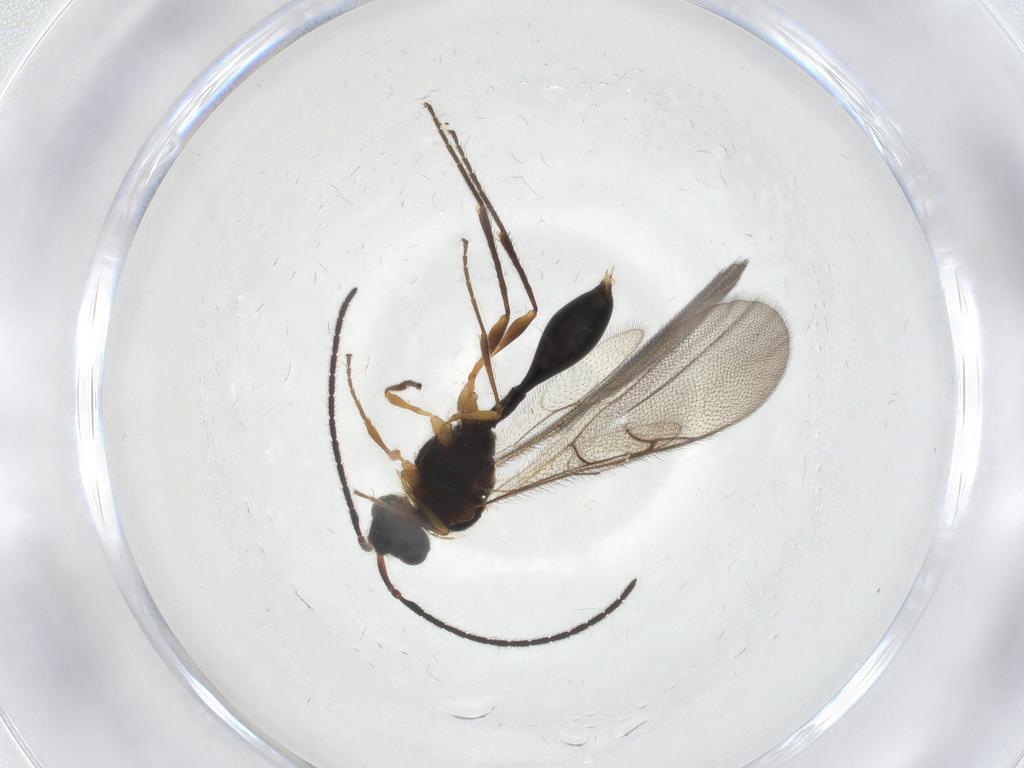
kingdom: Animalia
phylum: Arthropoda
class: Insecta
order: Hymenoptera
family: Diapriidae
